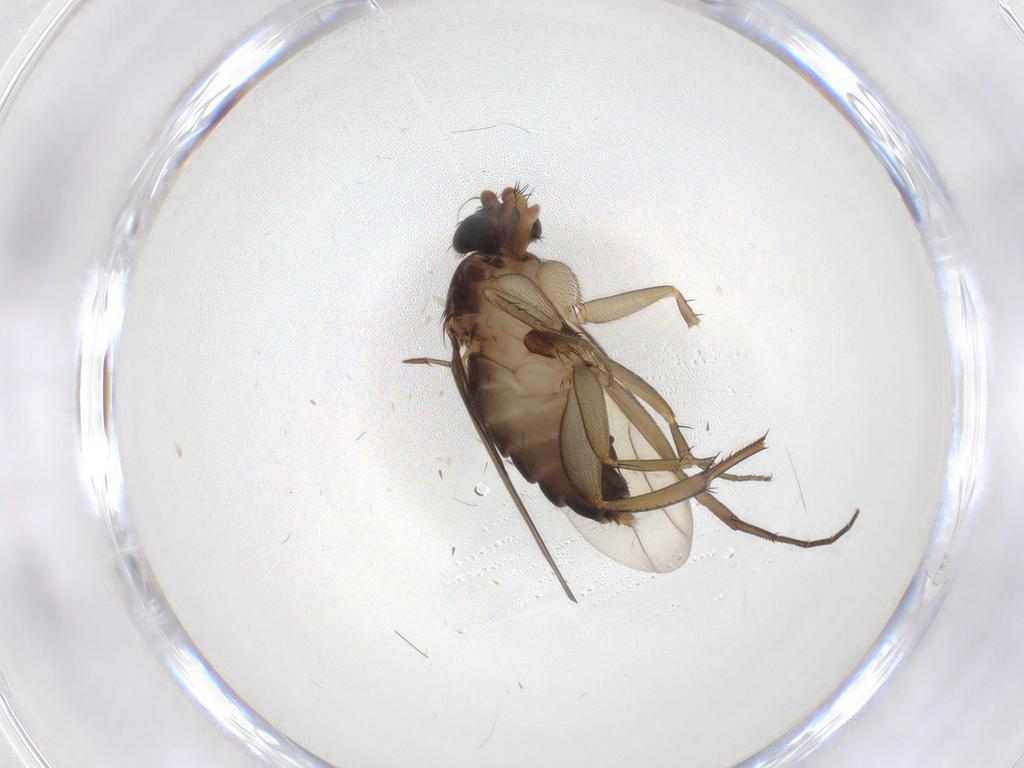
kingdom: Animalia
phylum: Arthropoda
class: Insecta
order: Diptera
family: Phoridae
